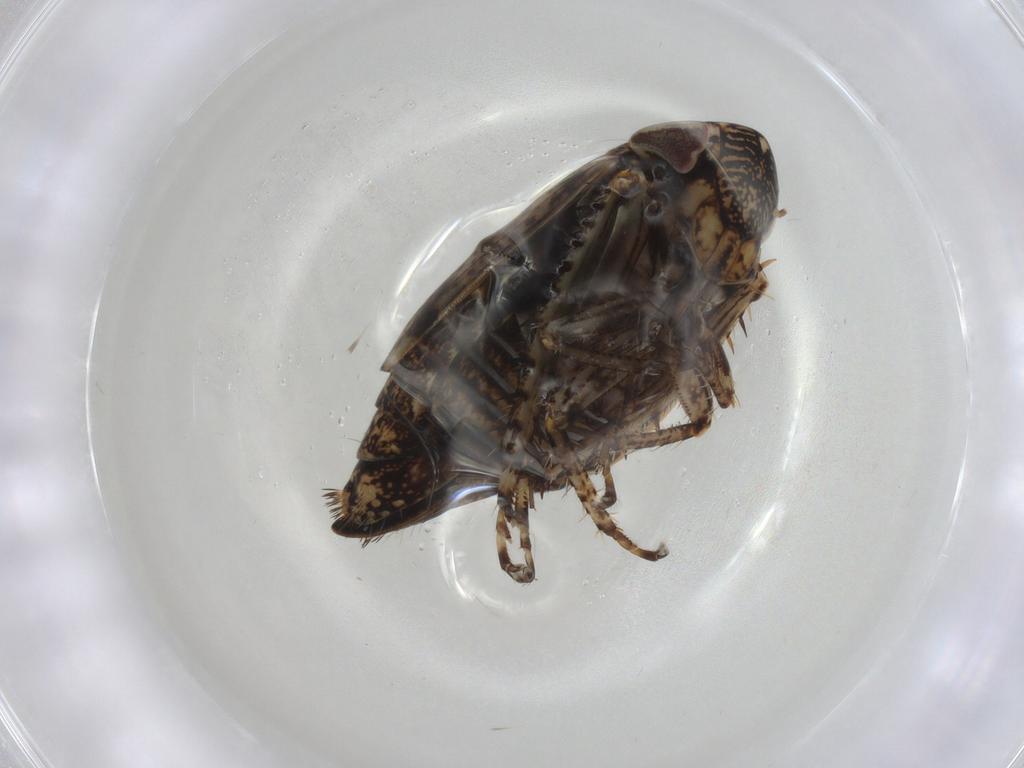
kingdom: Animalia
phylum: Arthropoda
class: Insecta
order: Hemiptera
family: Cicadellidae
